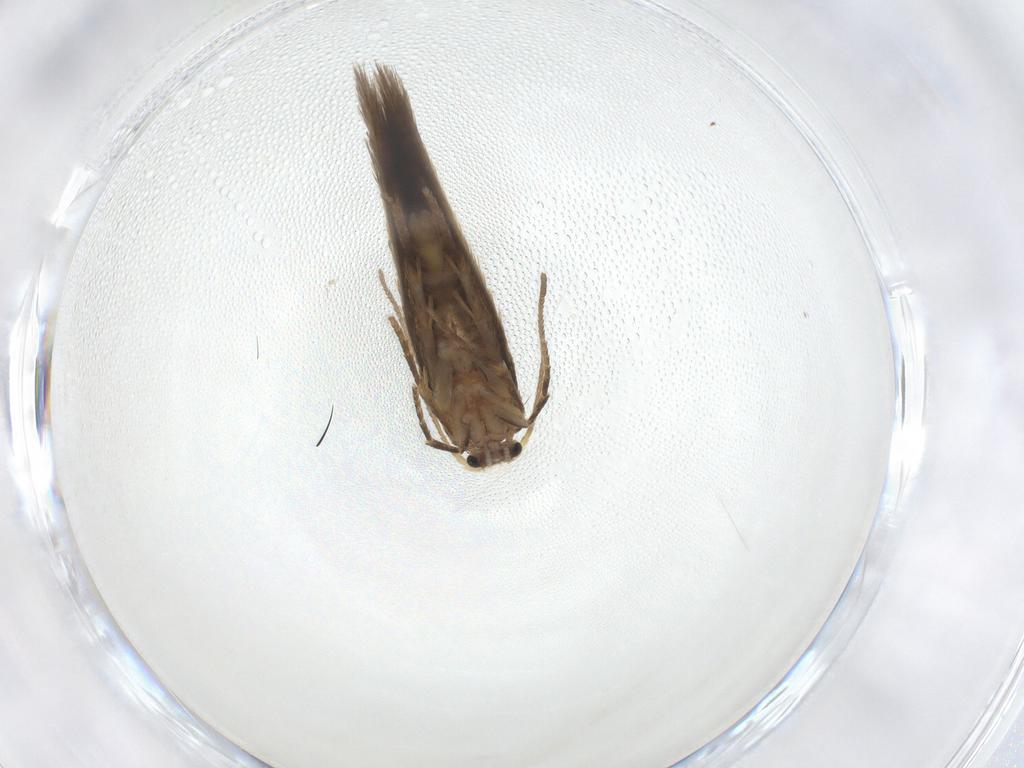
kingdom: Animalia
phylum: Arthropoda
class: Insecta
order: Lepidoptera
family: Nepticulidae
